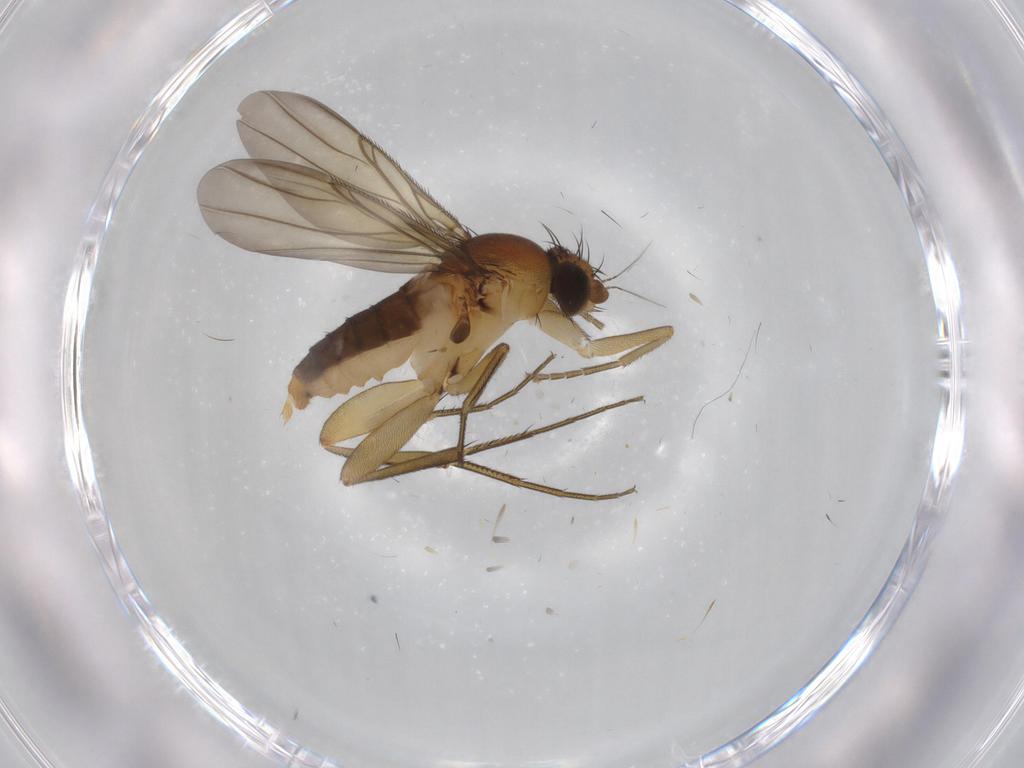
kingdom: Animalia
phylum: Arthropoda
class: Insecta
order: Diptera
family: Phoridae
